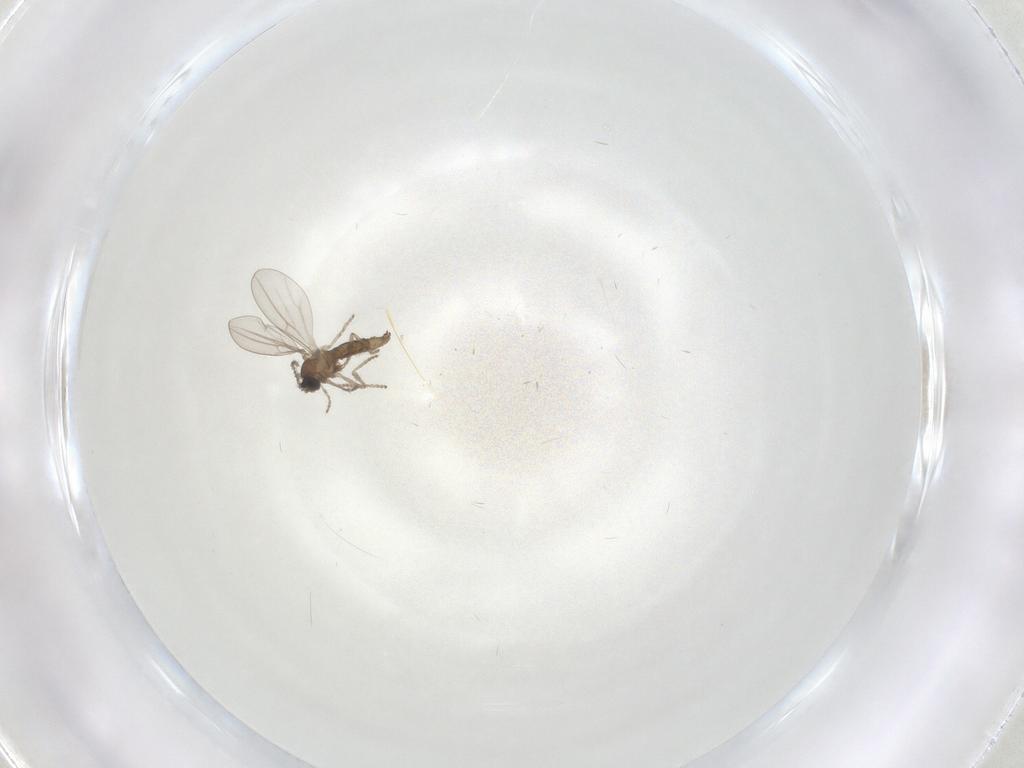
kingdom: Animalia
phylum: Arthropoda
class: Insecta
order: Diptera
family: Cecidomyiidae
